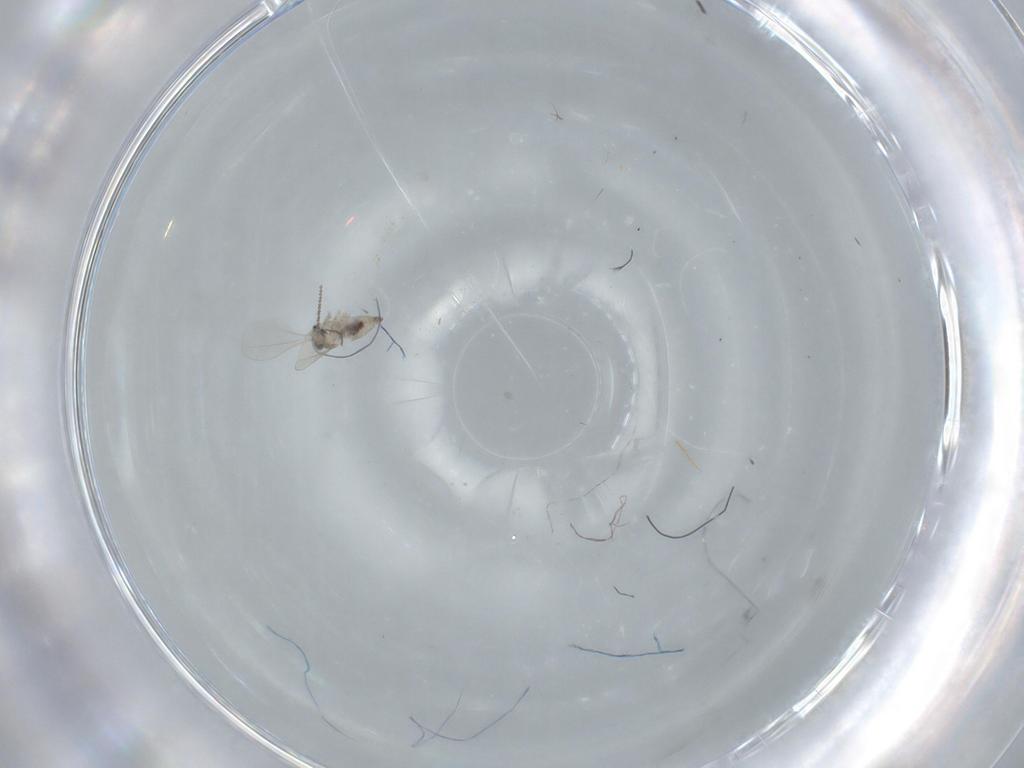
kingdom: Animalia
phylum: Arthropoda
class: Insecta
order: Diptera
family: Cecidomyiidae
